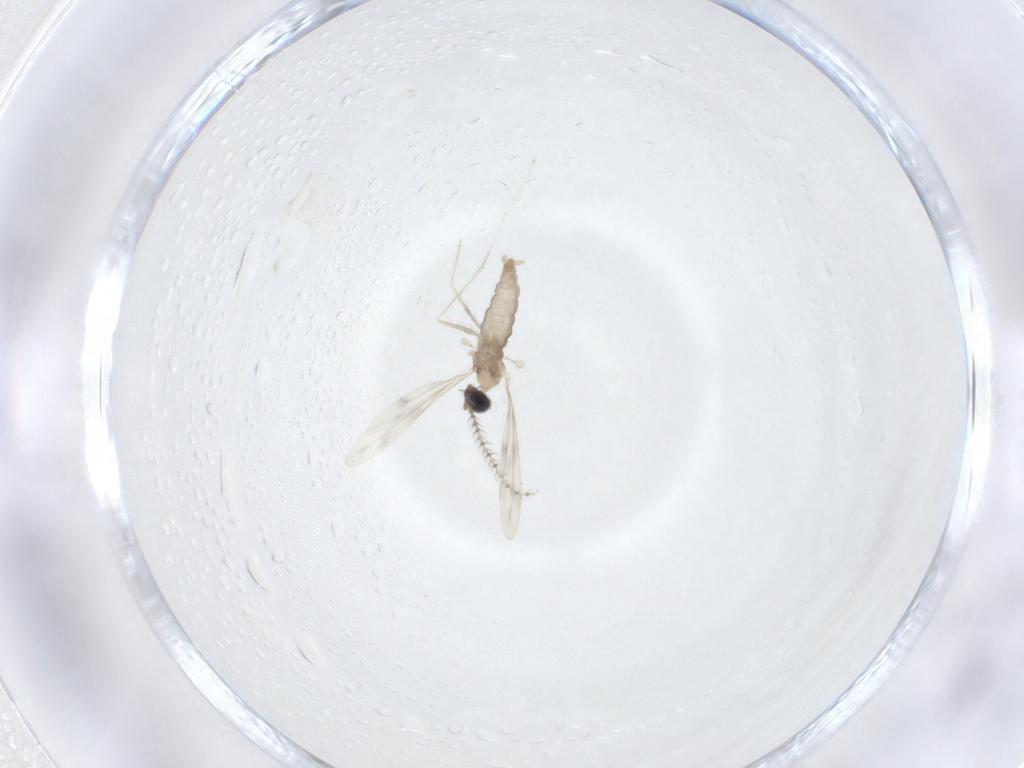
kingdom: Animalia
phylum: Arthropoda
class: Insecta
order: Diptera
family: Cecidomyiidae
